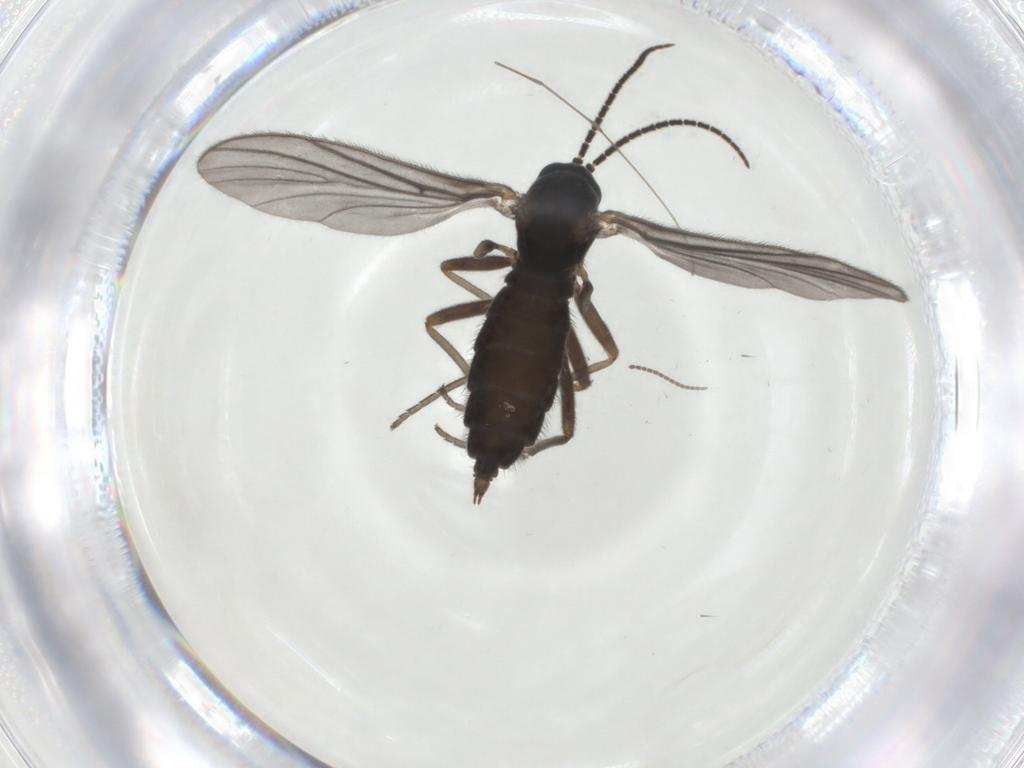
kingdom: Animalia
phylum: Arthropoda
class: Insecta
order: Diptera
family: Sciaridae
